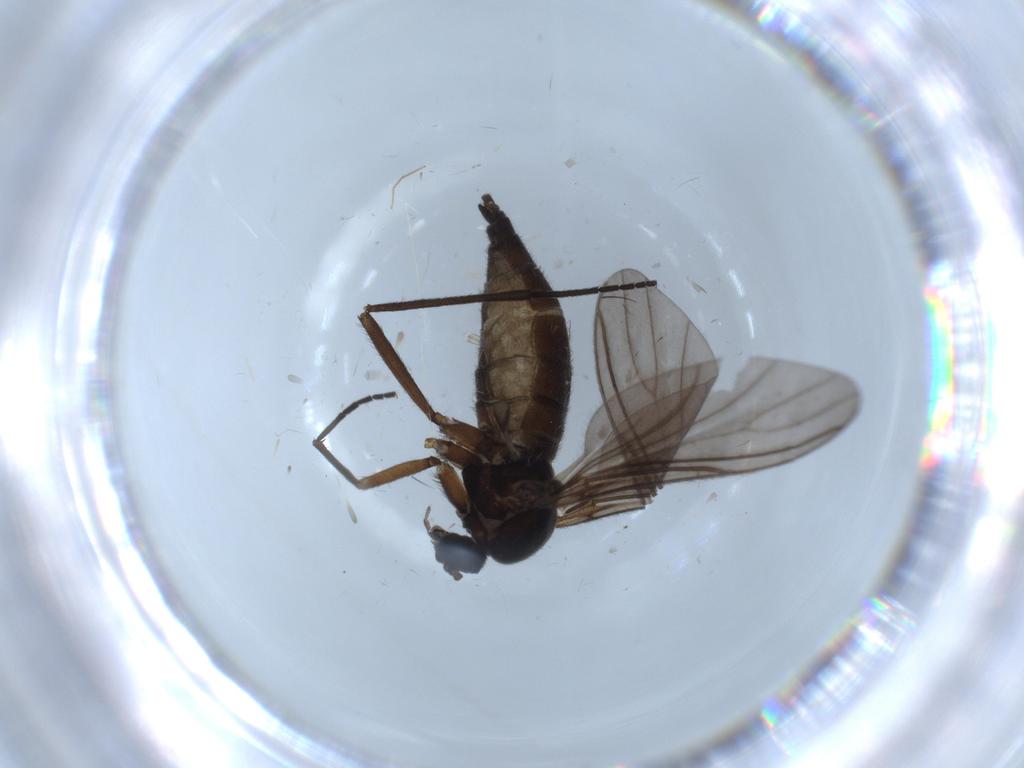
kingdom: Animalia
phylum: Arthropoda
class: Insecta
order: Diptera
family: Sciaridae
